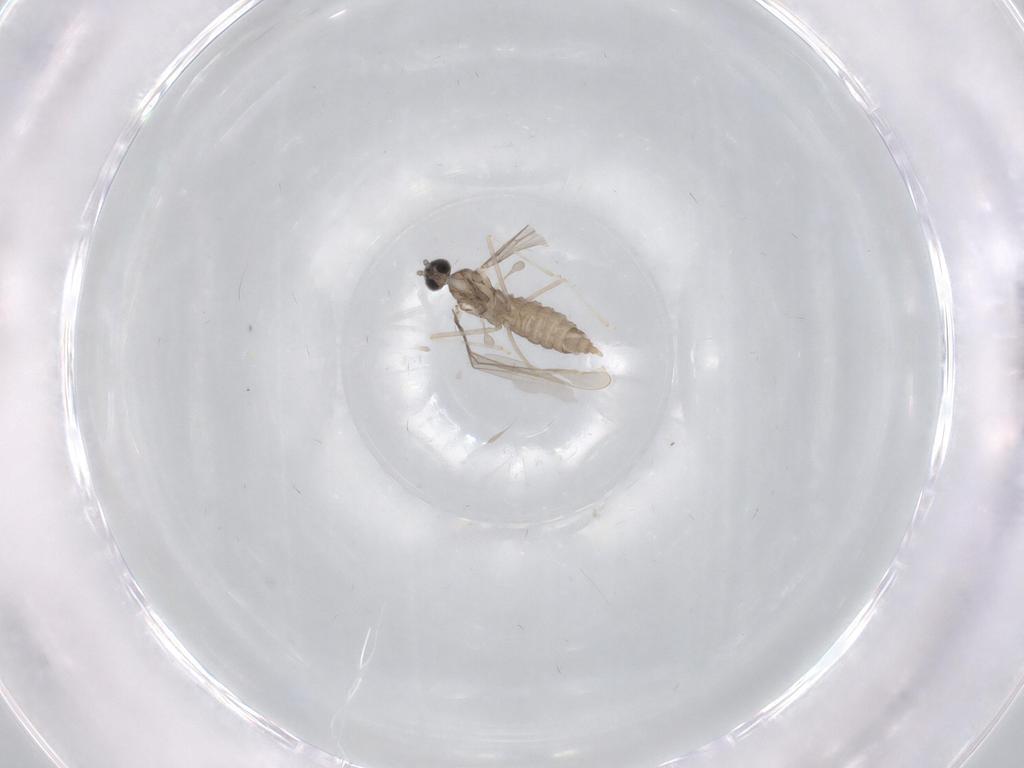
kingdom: Animalia
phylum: Arthropoda
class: Insecta
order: Diptera
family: Cecidomyiidae
